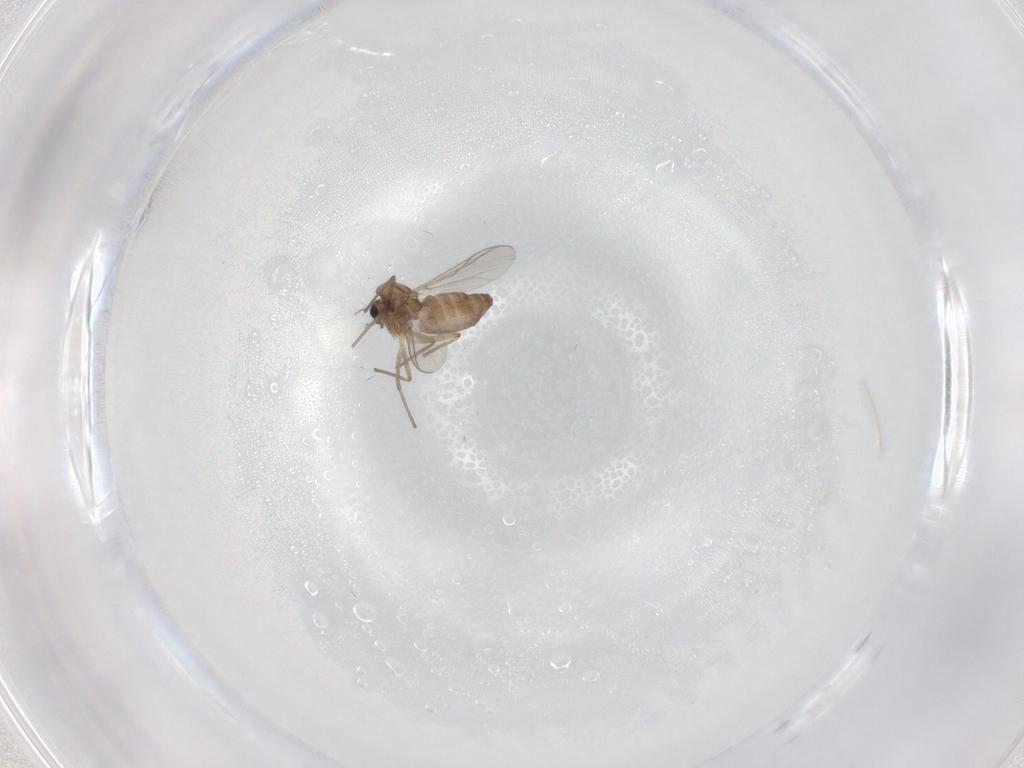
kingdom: Animalia
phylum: Arthropoda
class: Insecta
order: Diptera
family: Chironomidae
